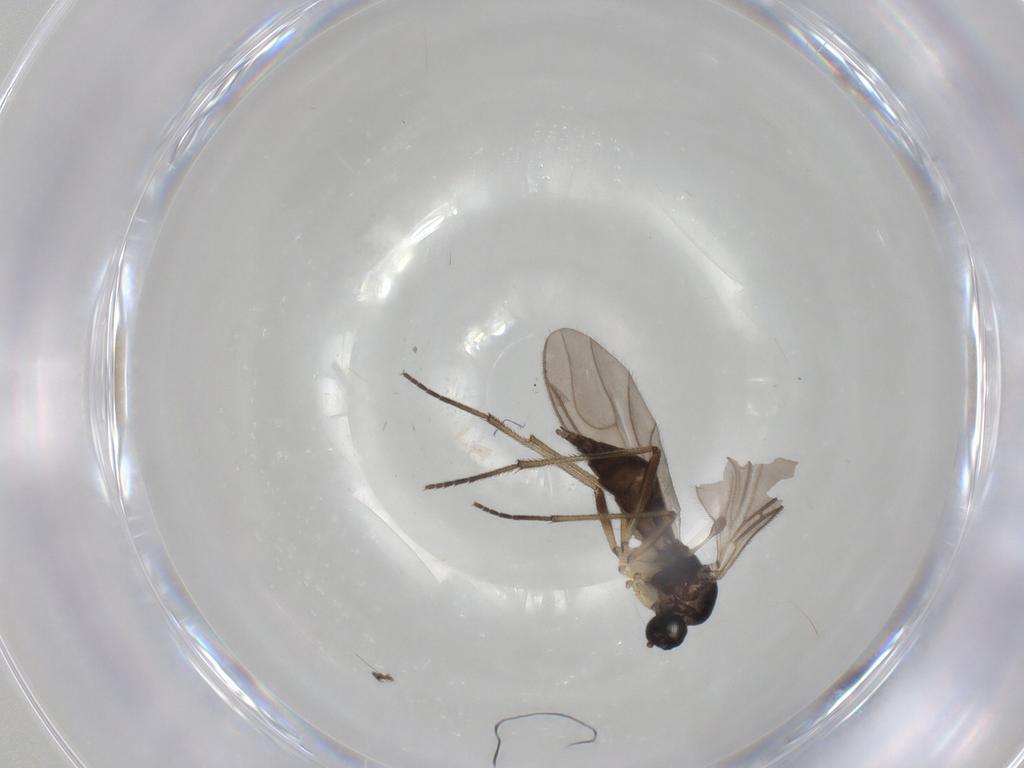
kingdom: Animalia
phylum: Arthropoda
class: Insecta
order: Diptera
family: Sciaridae
